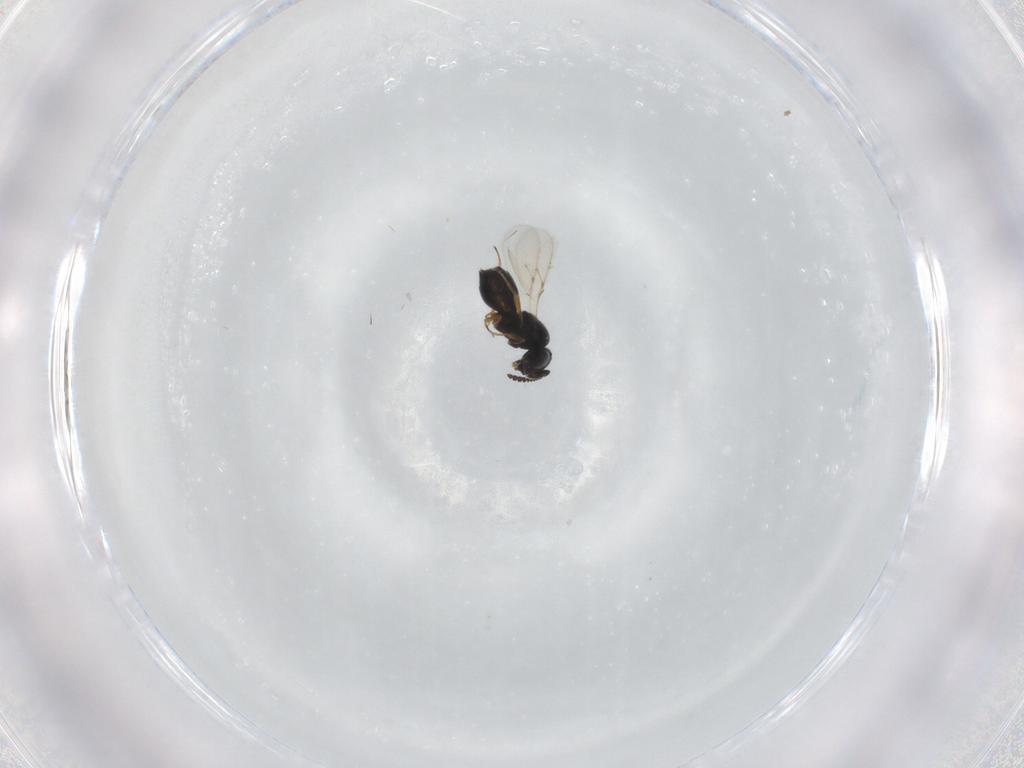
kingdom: Animalia
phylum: Arthropoda
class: Insecta
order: Hymenoptera
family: Scelionidae
